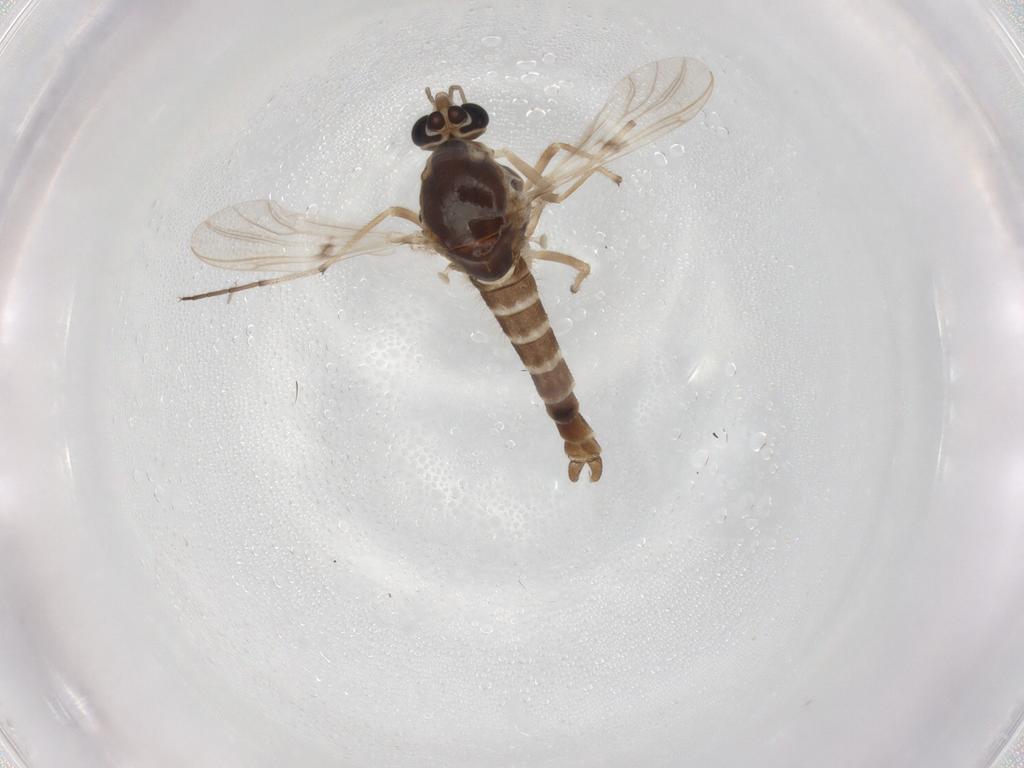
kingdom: Animalia
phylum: Arthropoda
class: Insecta
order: Diptera
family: Chironomidae
